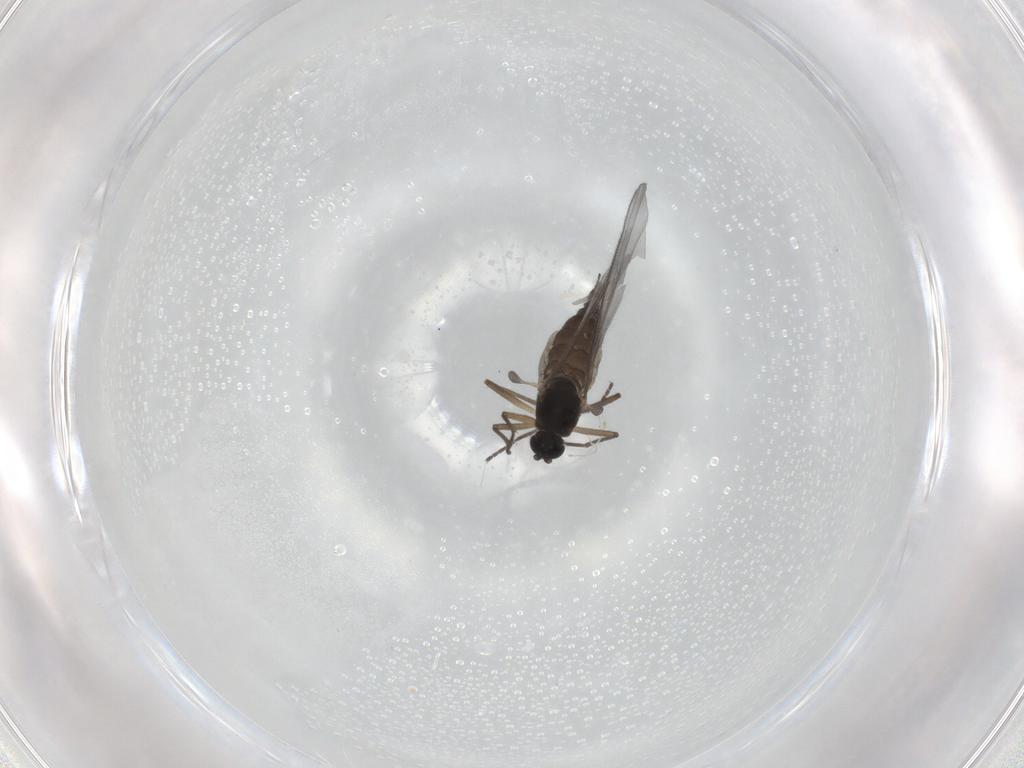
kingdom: Animalia
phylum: Arthropoda
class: Insecta
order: Diptera
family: Sciaridae
